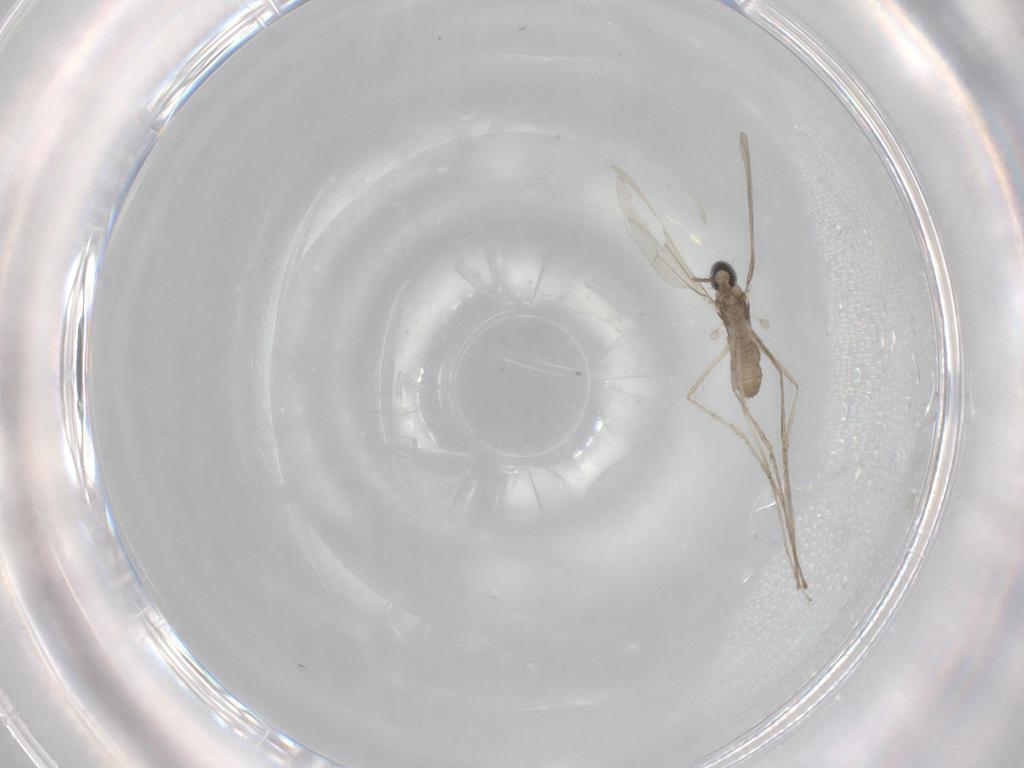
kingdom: Animalia
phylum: Arthropoda
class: Insecta
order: Diptera
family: Cecidomyiidae
